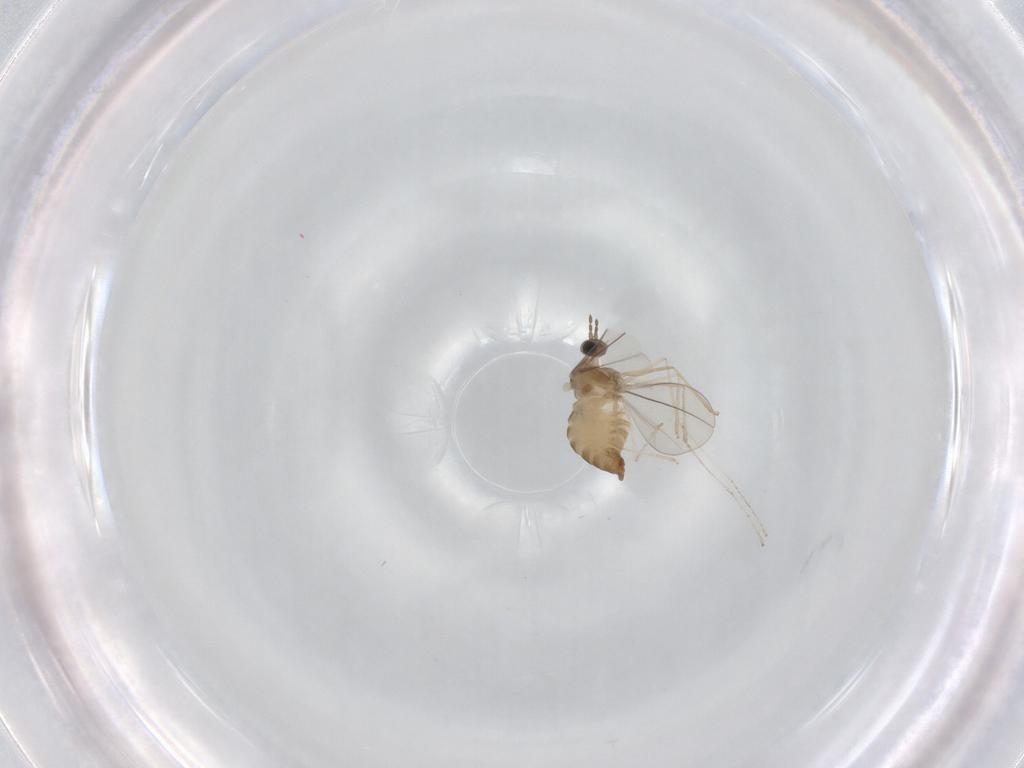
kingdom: Animalia
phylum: Arthropoda
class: Insecta
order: Diptera
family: Cecidomyiidae
